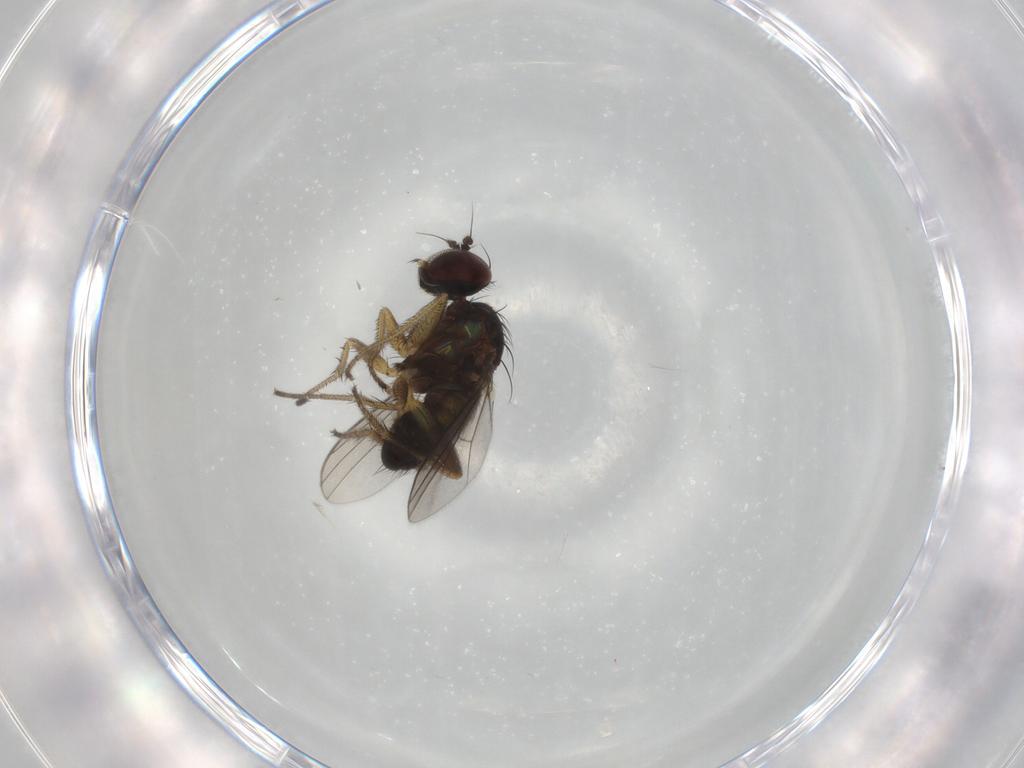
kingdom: Animalia
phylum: Arthropoda
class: Insecta
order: Diptera
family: Dolichopodidae
